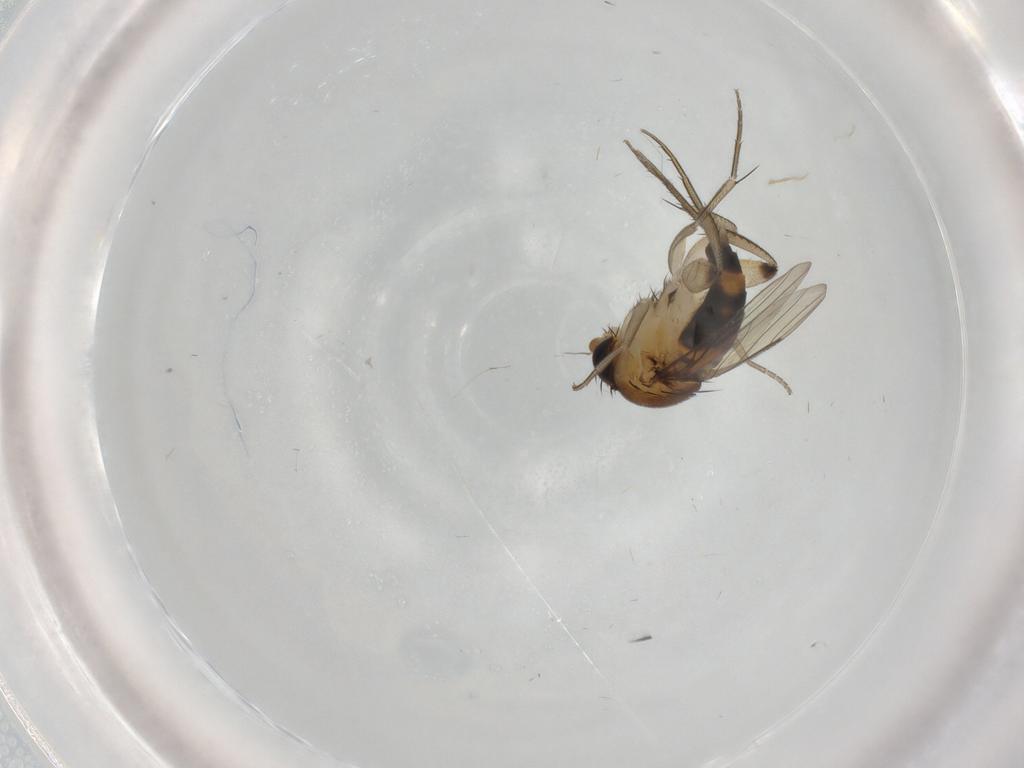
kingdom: Animalia
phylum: Arthropoda
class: Insecta
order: Diptera
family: Phoridae
